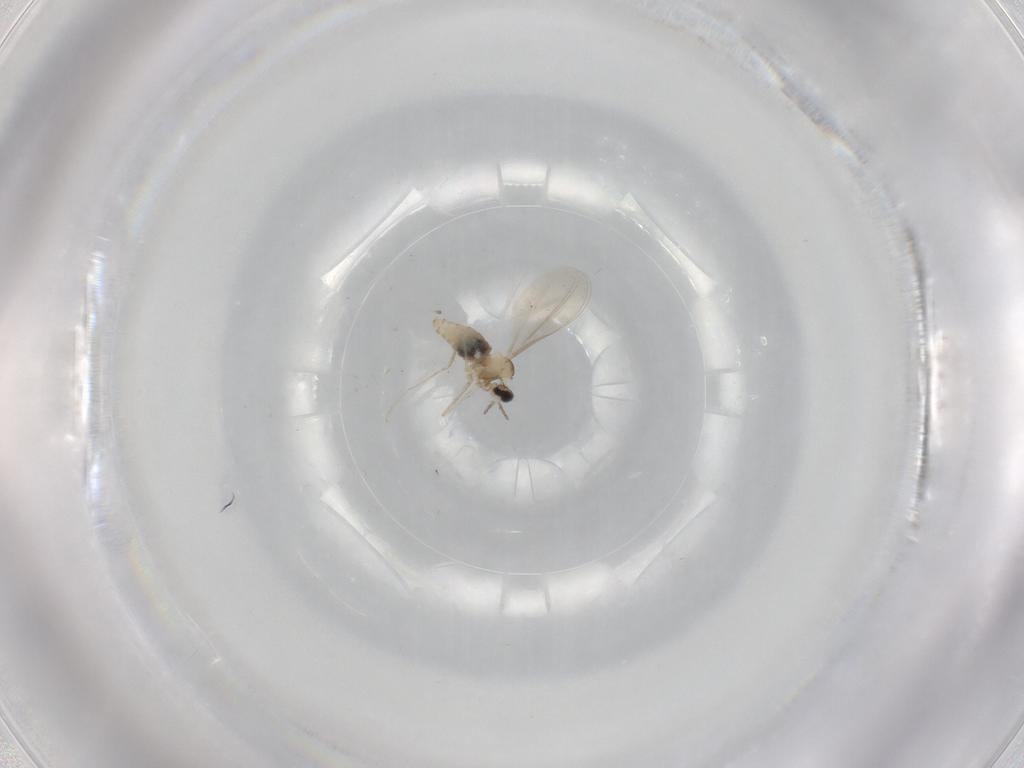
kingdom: Animalia
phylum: Arthropoda
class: Insecta
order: Diptera
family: Cecidomyiidae
